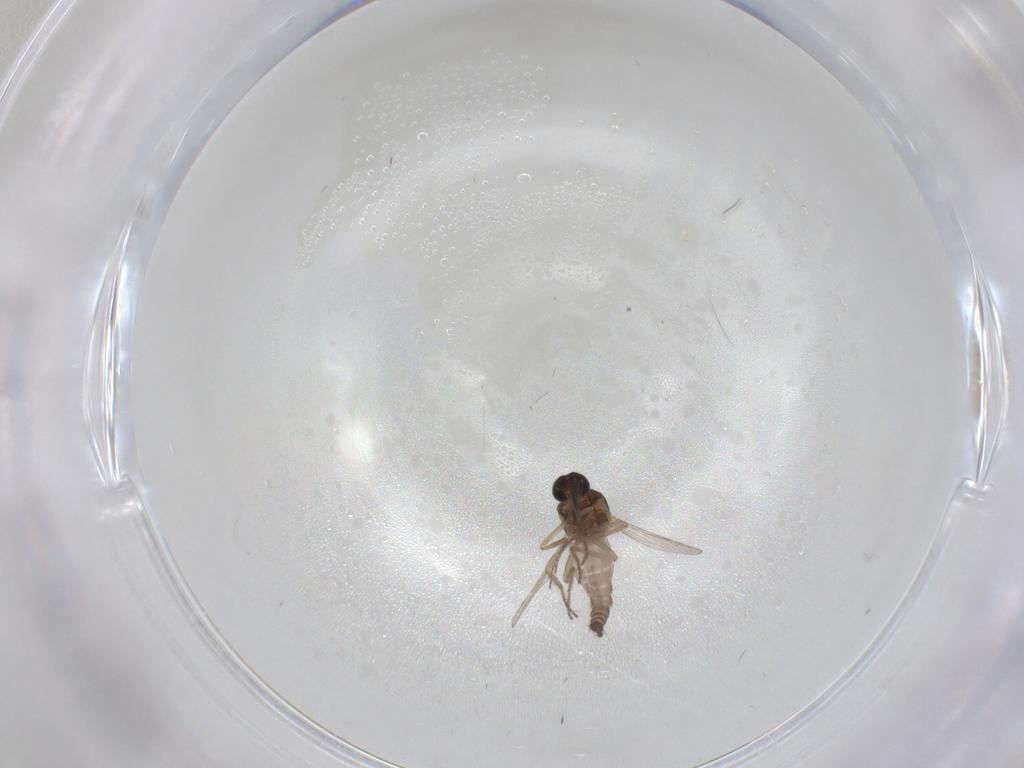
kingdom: Animalia
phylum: Arthropoda
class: Insecta
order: Diptera
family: Ceratopogonidae
